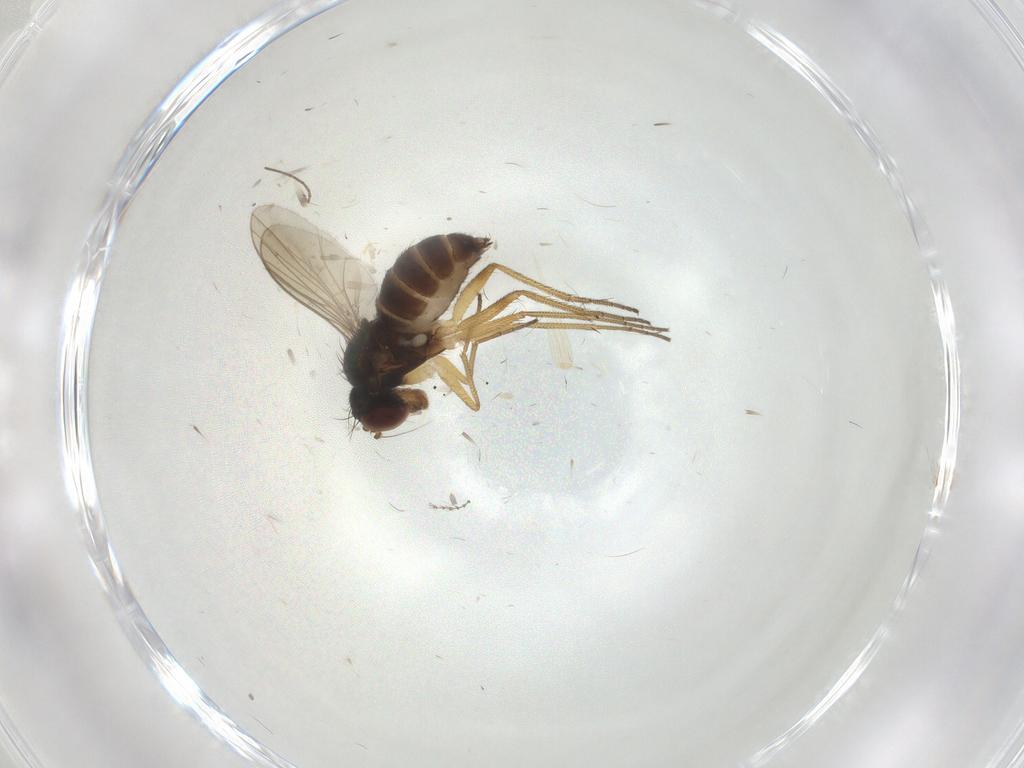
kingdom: Animalia
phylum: Arthropoda
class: Insecta
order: Diptera
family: Dolichopodidae
